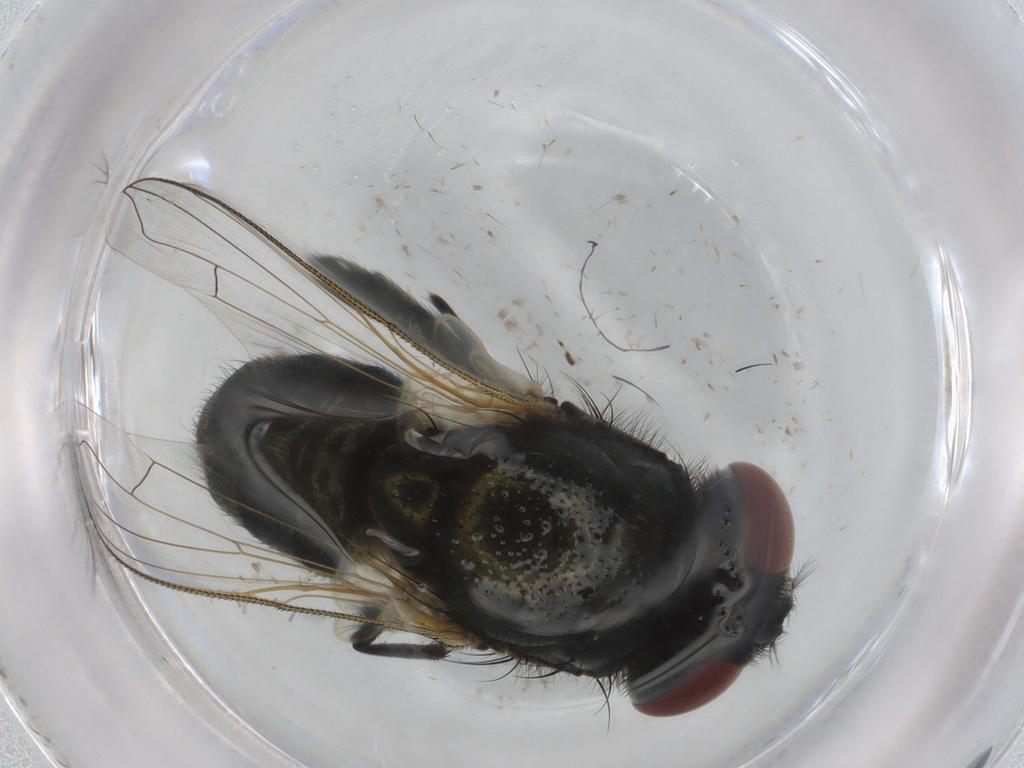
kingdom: Animalia
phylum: Arthropoda
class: Insecta
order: Diptera
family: Muscidae
